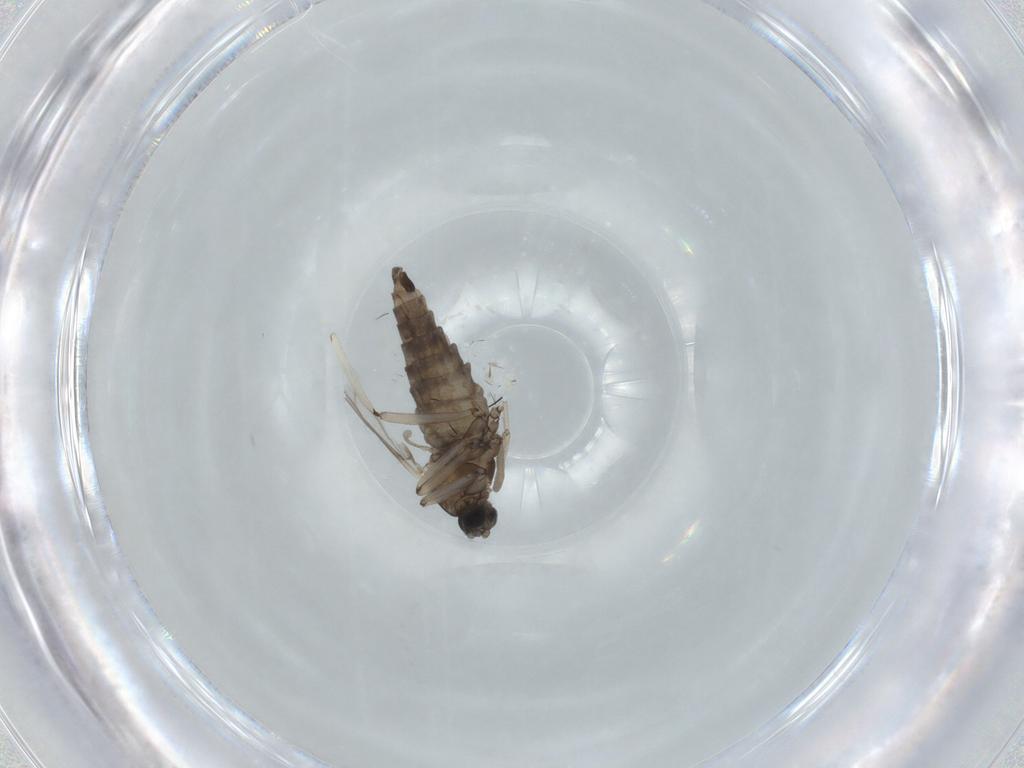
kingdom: Animalia
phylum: Arthropoda
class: Insecta
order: Diptera
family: Cecidomyiidae
